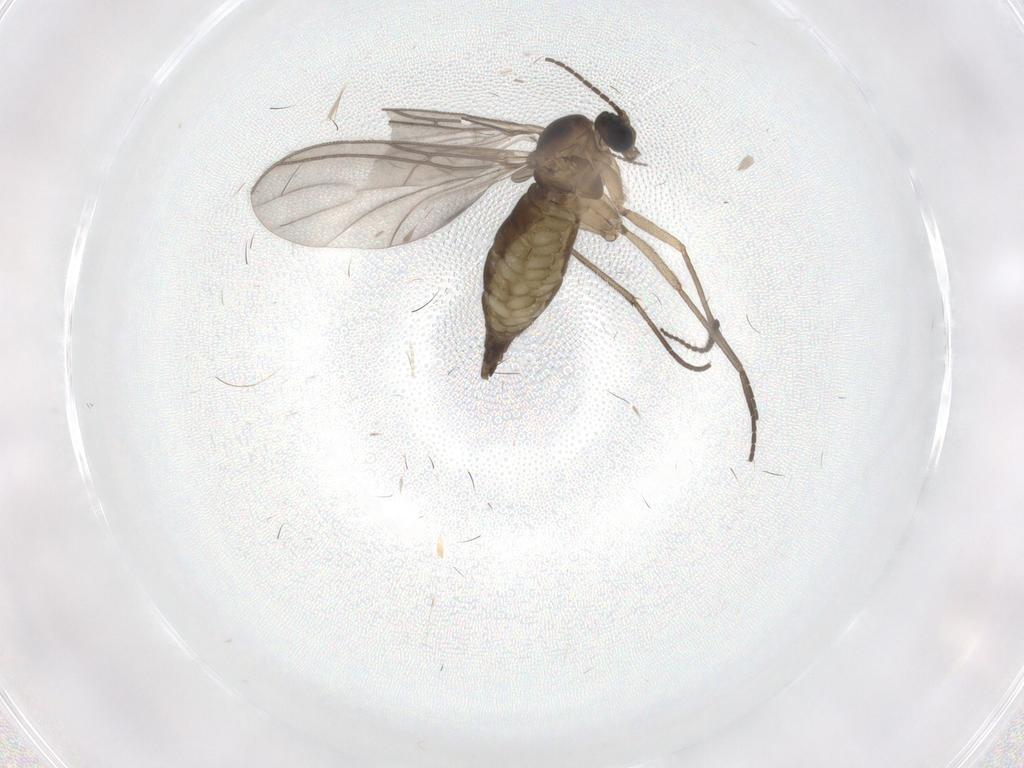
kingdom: Animalia
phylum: Arthropoda
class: Insecta
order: Diptera
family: Limoniidae
